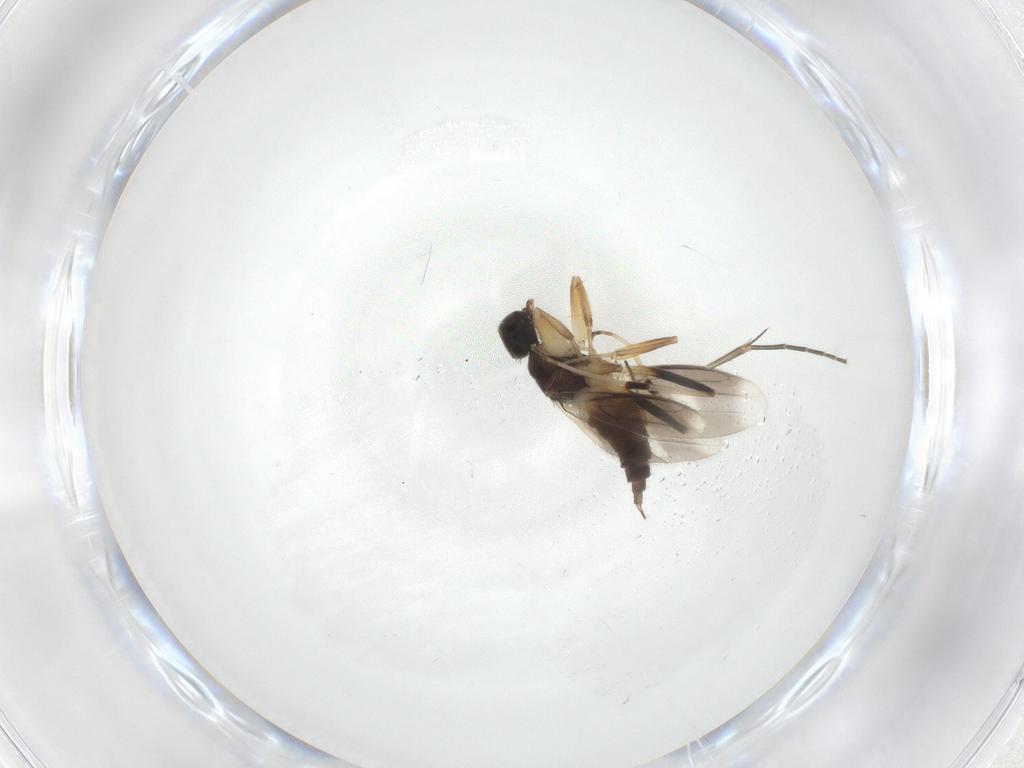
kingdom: Animalia
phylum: Arthropoda
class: Insecta
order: Diptera
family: Hybotidae
